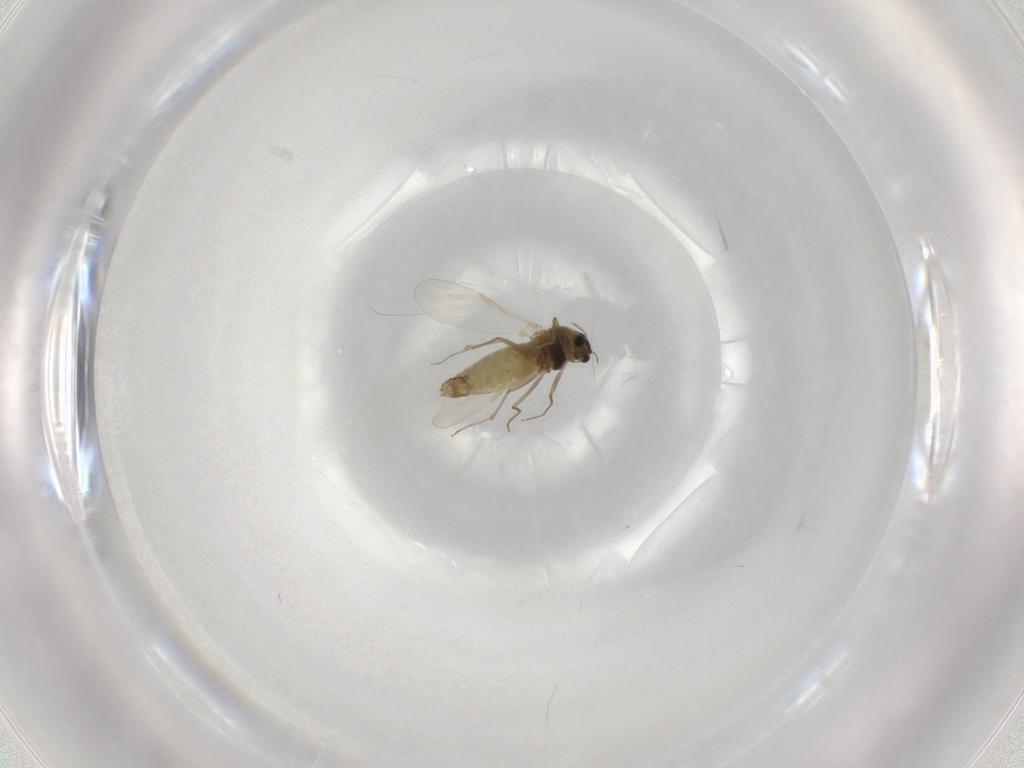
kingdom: Animalia
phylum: Arthropoda
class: Insecta
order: Diptera
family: Chironomidae
